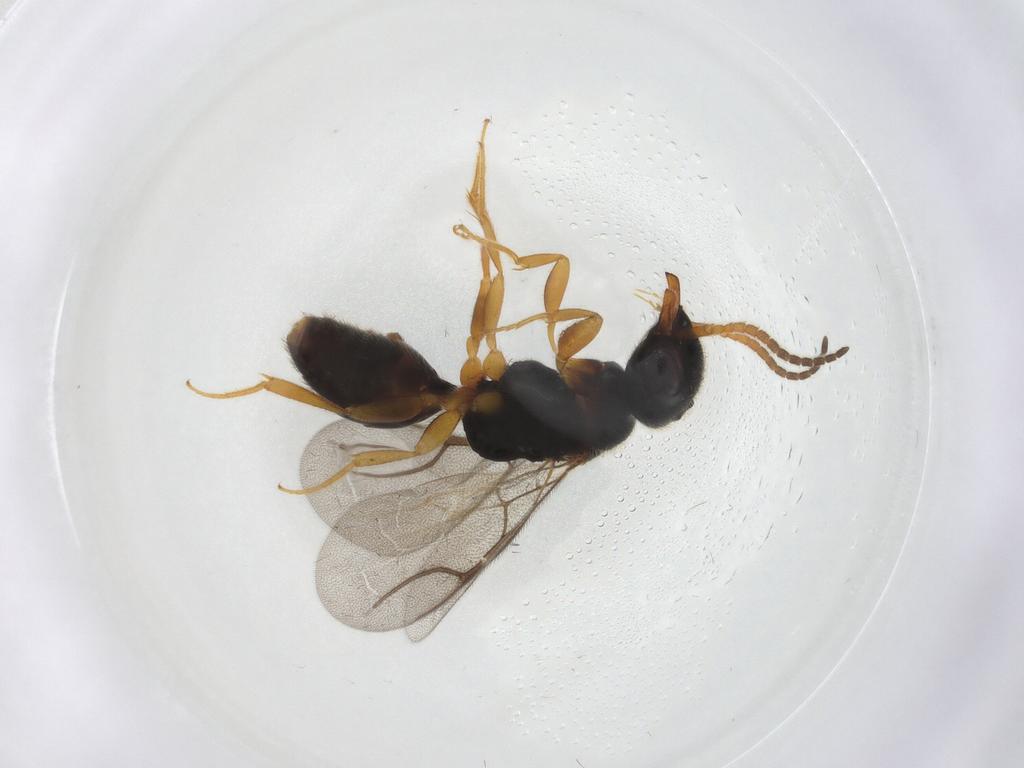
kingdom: Animalia
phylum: Arthropoda
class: Insecta
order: Hymenoptera
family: Bethylidae
